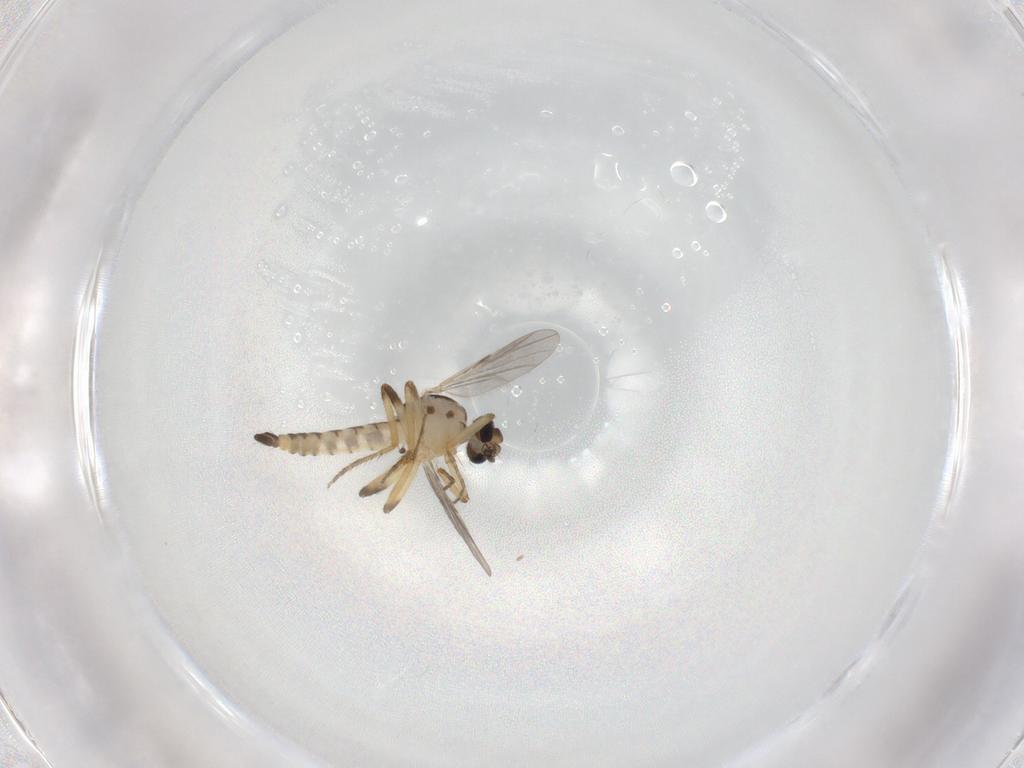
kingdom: Animalia
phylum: Arthropoda
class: Insecta
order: Diptera
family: Ceratopogonidae
